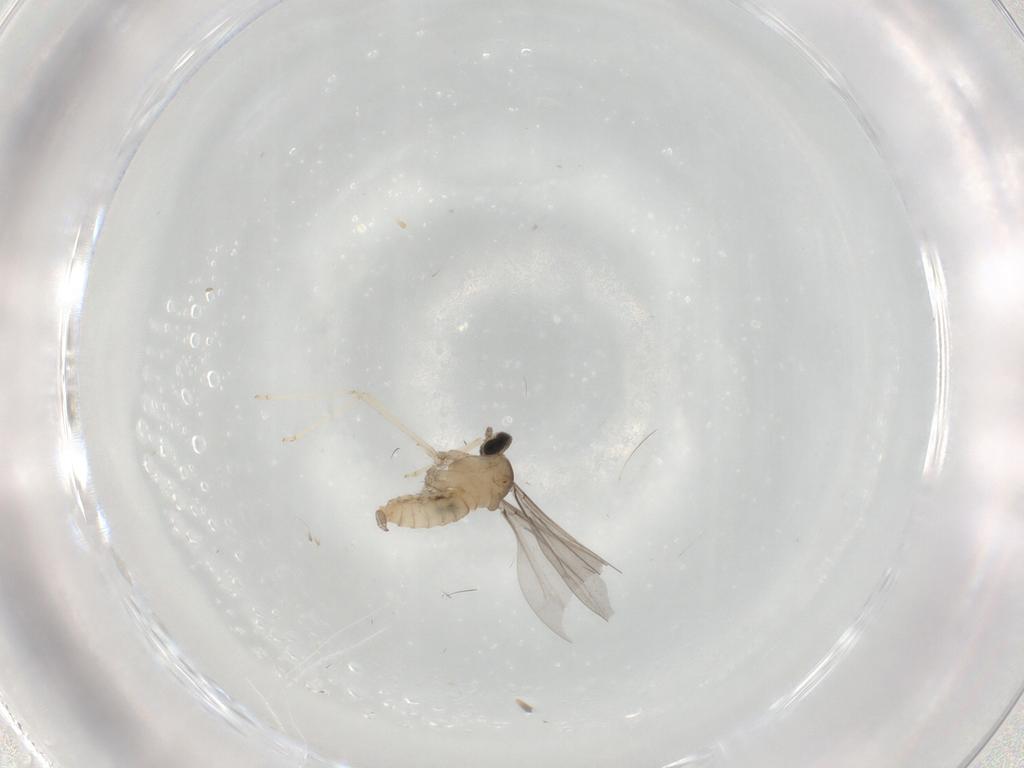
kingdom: Animalia
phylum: Arthropoda
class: Insecta
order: Diptera
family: Cecidomyiidae
